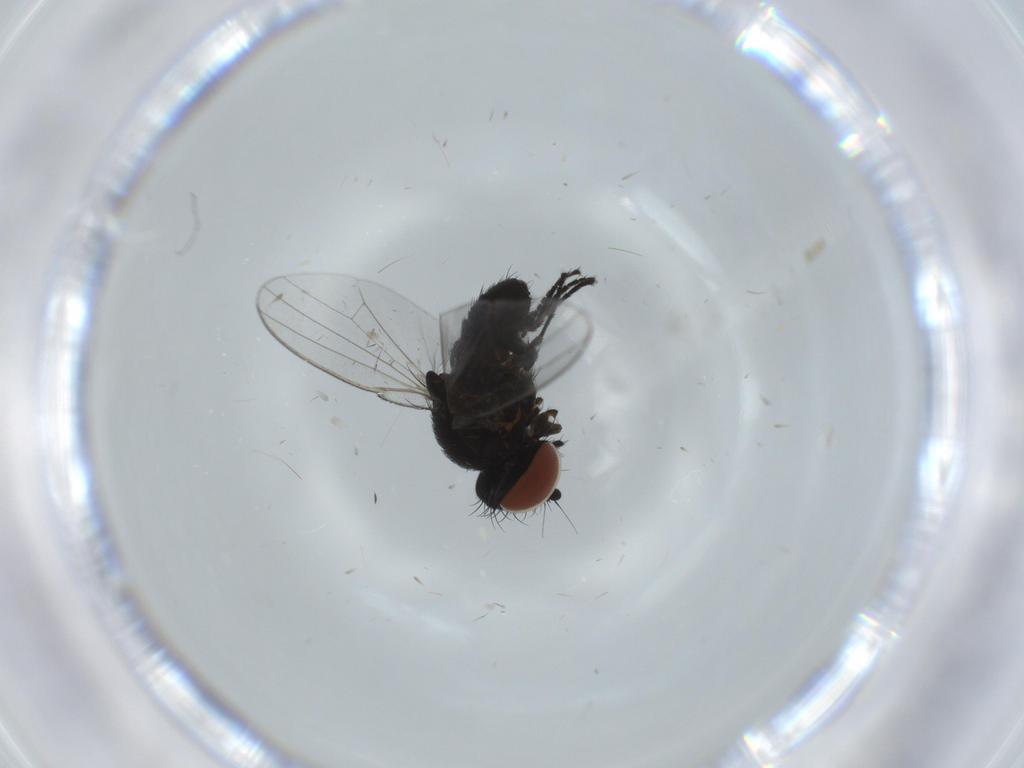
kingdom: Animalia
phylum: Arthropoda
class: Insecta
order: Diptera
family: Milichiidae
